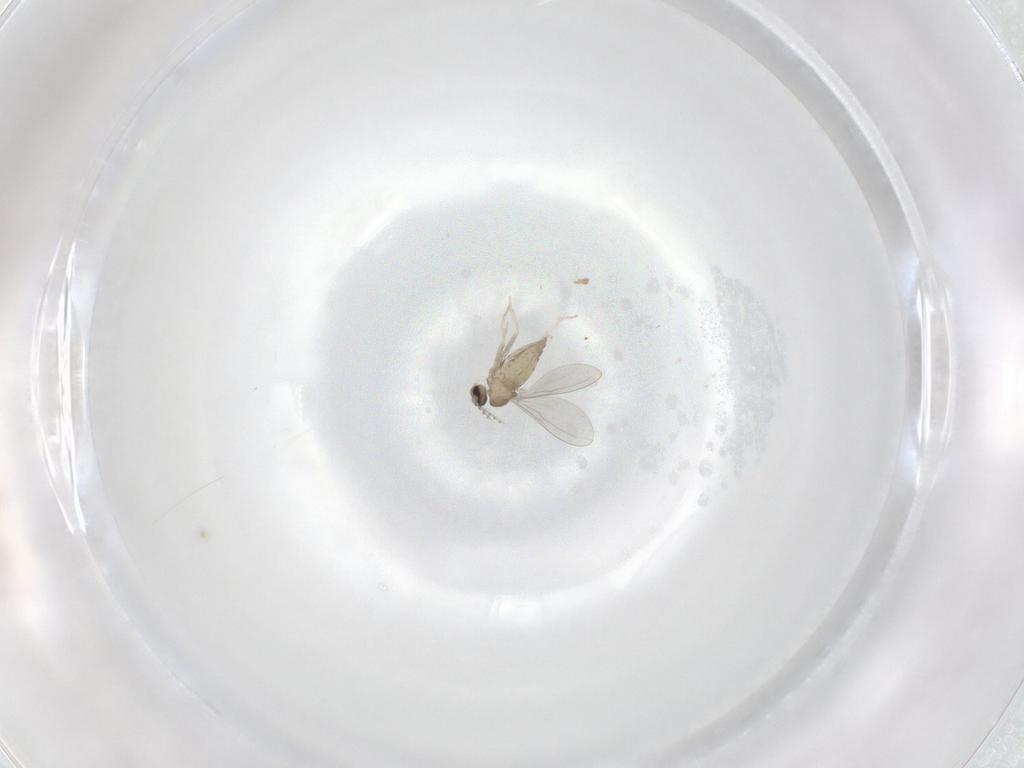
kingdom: Animalia
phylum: Arthropoda
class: Insecta
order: Diptera
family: Cecidomyiidae
